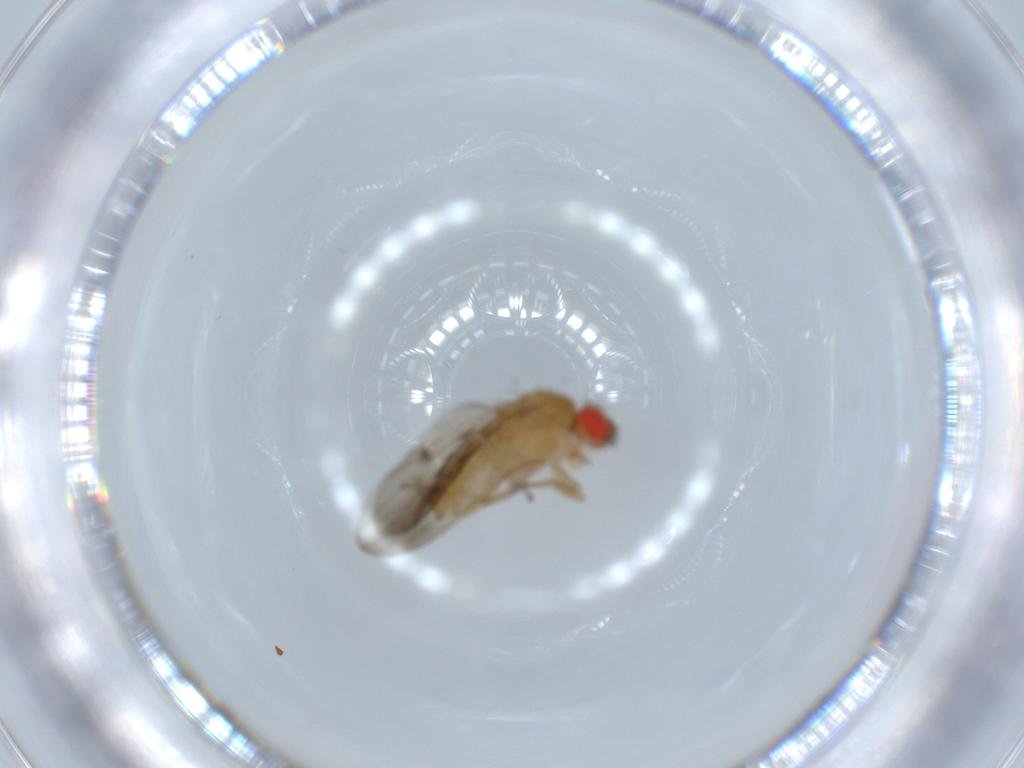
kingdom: Animalia
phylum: Arthropoda
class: Insecta
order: Diptera
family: Drosophilidae
